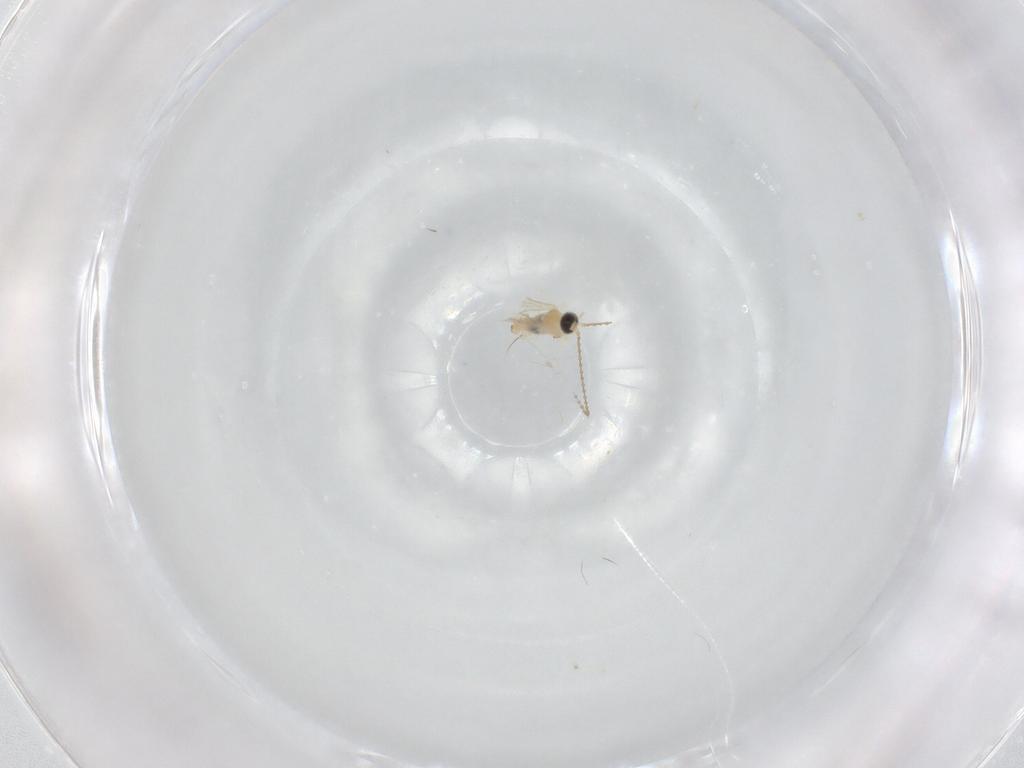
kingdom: Animalia
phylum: Arthropoda
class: Insecta
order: Diptera
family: Cecidomyiidae
